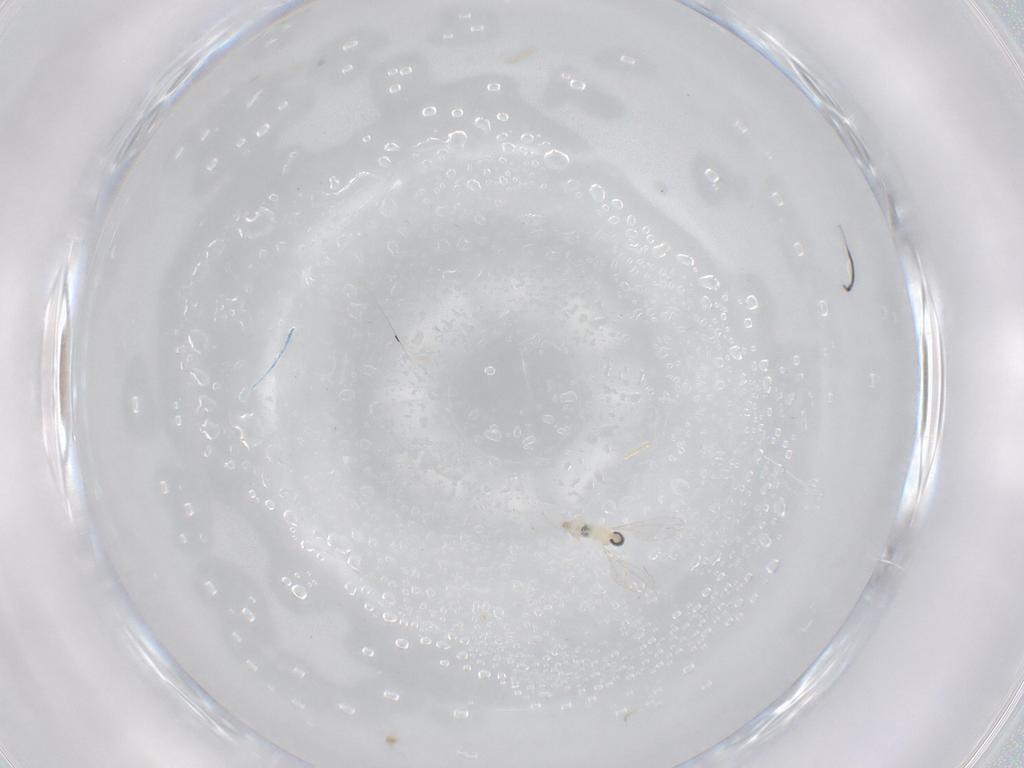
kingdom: Animalia
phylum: Arthropoda
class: Insecta
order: Diptera
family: Cecidomyiidae
